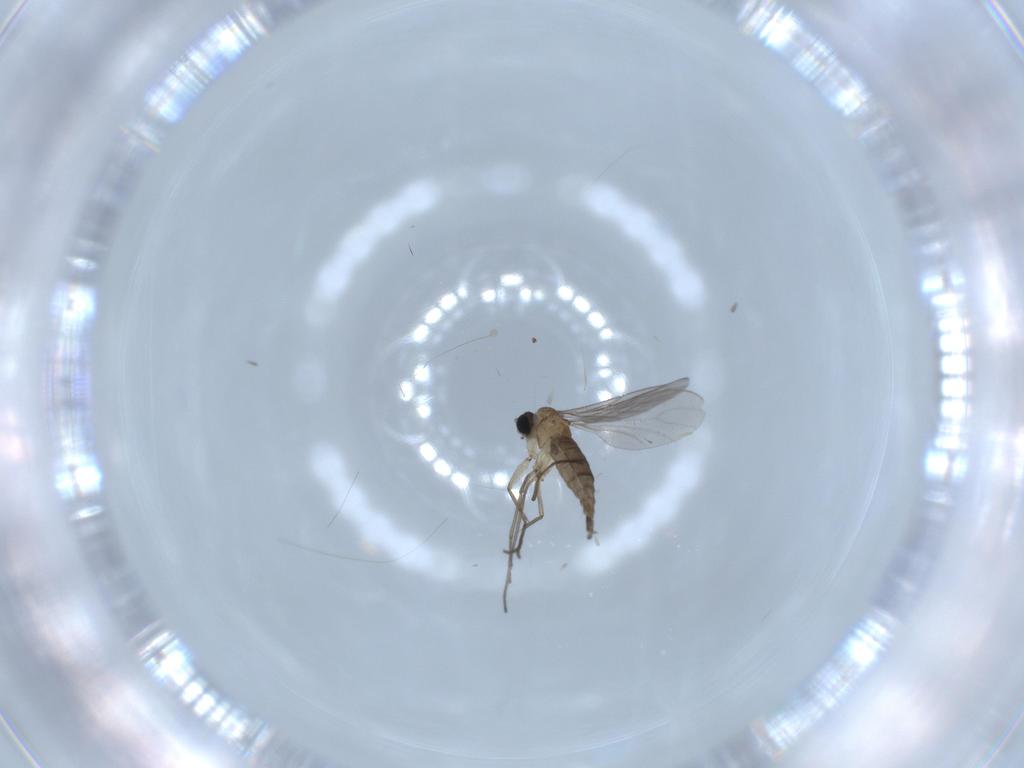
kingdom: Animalia
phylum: Arthropoda
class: Insecta
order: Diptera
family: Sciaridae
